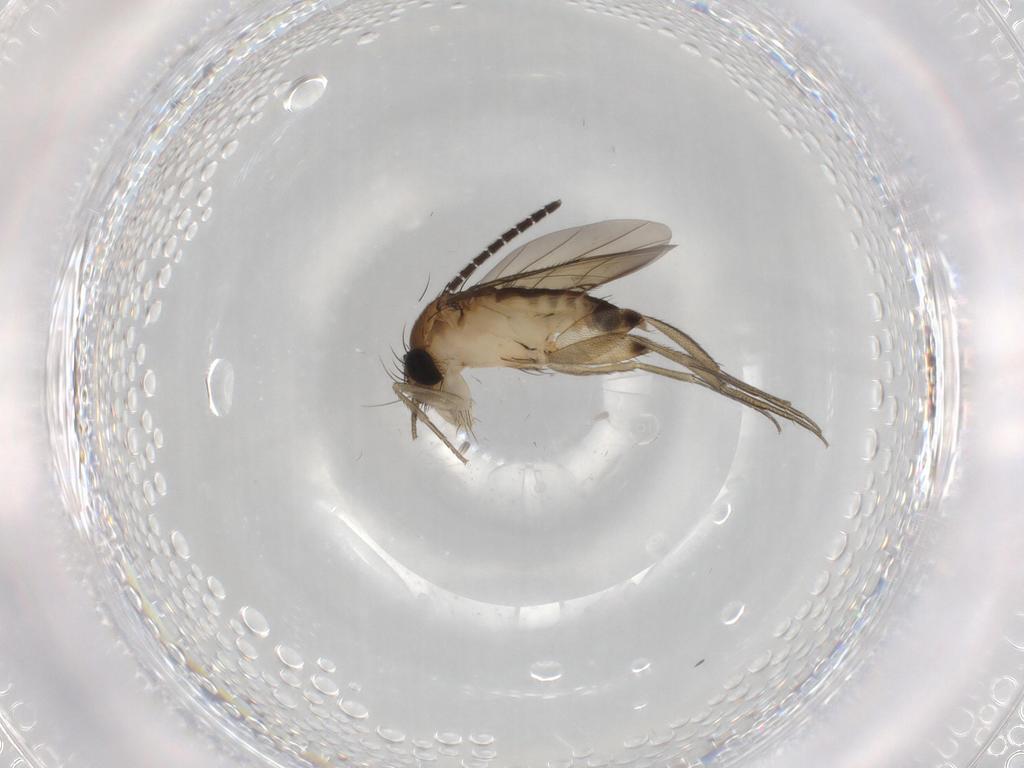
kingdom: Animalia
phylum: Arthropoda
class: Insecta
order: Diptera
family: Phoridae
